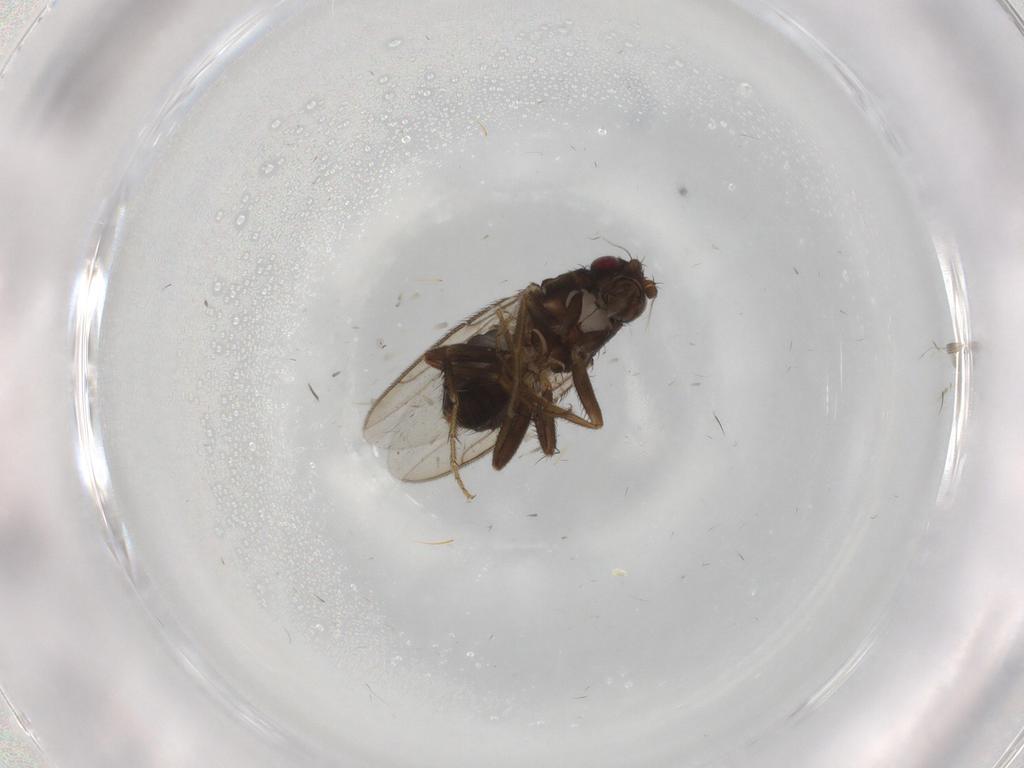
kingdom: Animalia
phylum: Arthropoda
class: Insecta
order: Diptera
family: Sphaeroceridae
